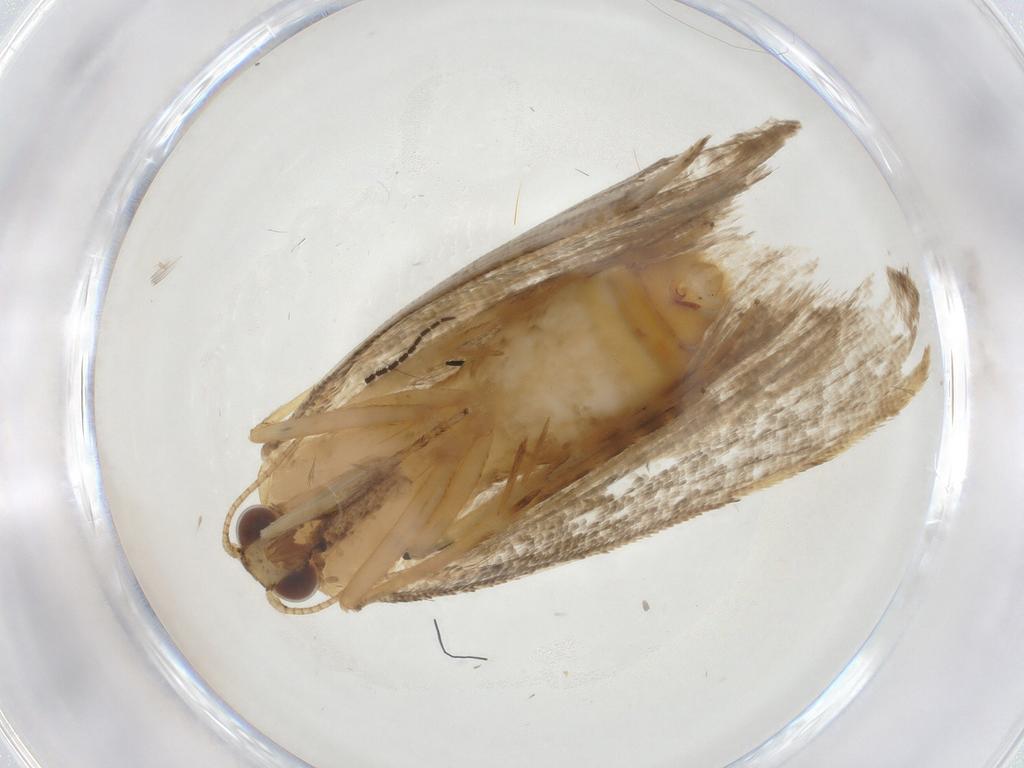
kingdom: Animalia
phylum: Arthropoda
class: Insecta
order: Lepidoptera
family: Erebidae
